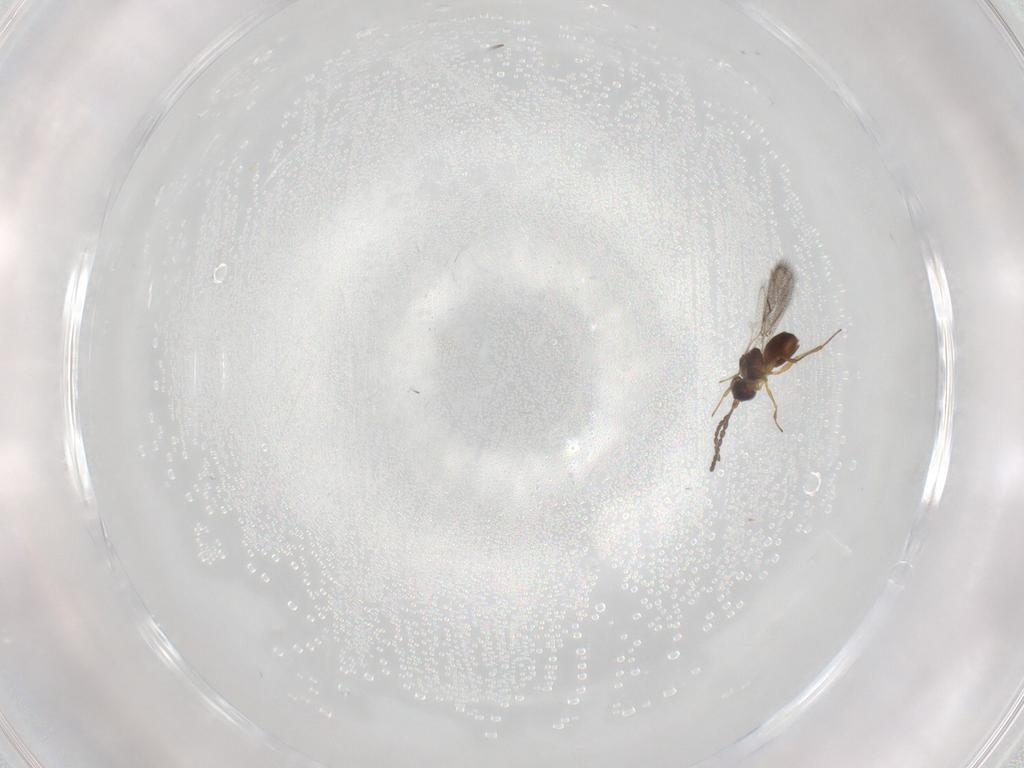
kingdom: Animalia
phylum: Arthropoda
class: Insecta
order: Hymenoptera
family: Figitidae
